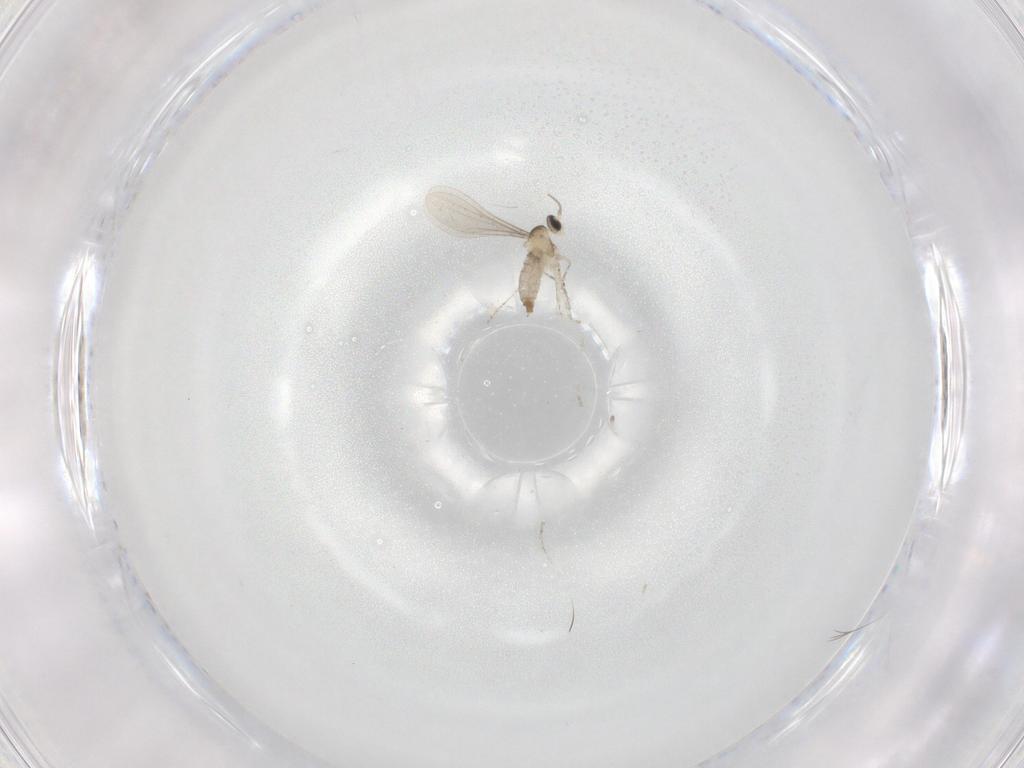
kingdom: Animalia
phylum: Arthropoda
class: Insecta
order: Diptera
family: Cecidomyiidae
